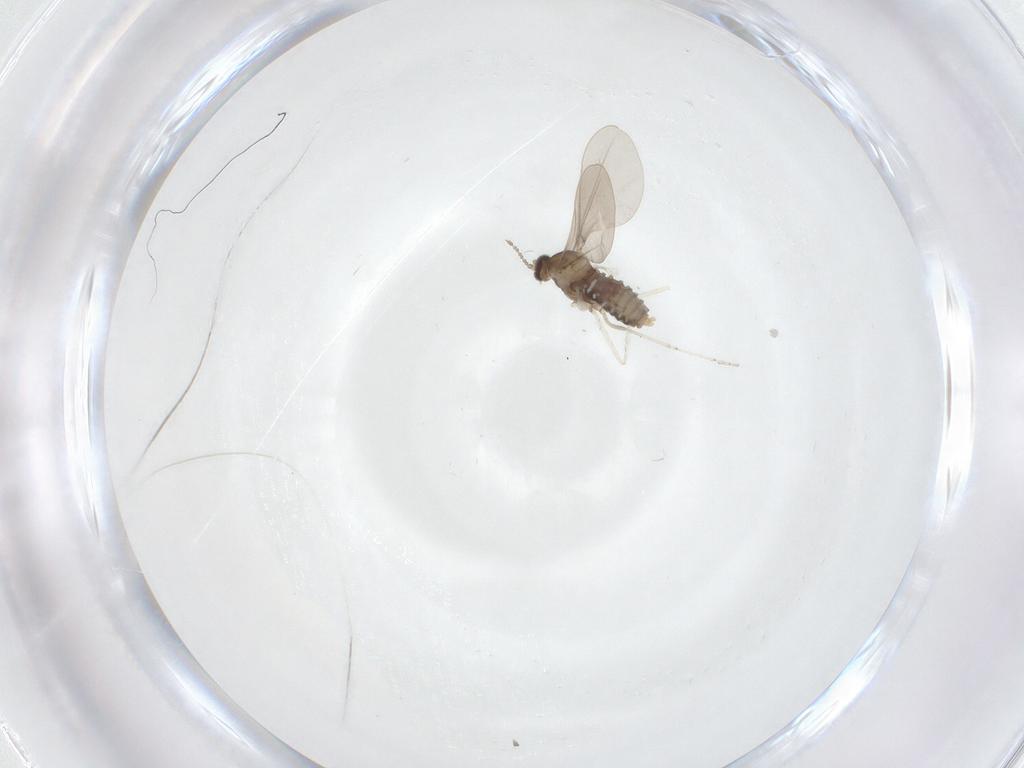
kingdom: Animalia
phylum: Arthropoda
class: Insecta
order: Diptera
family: Cecidomyiidae
